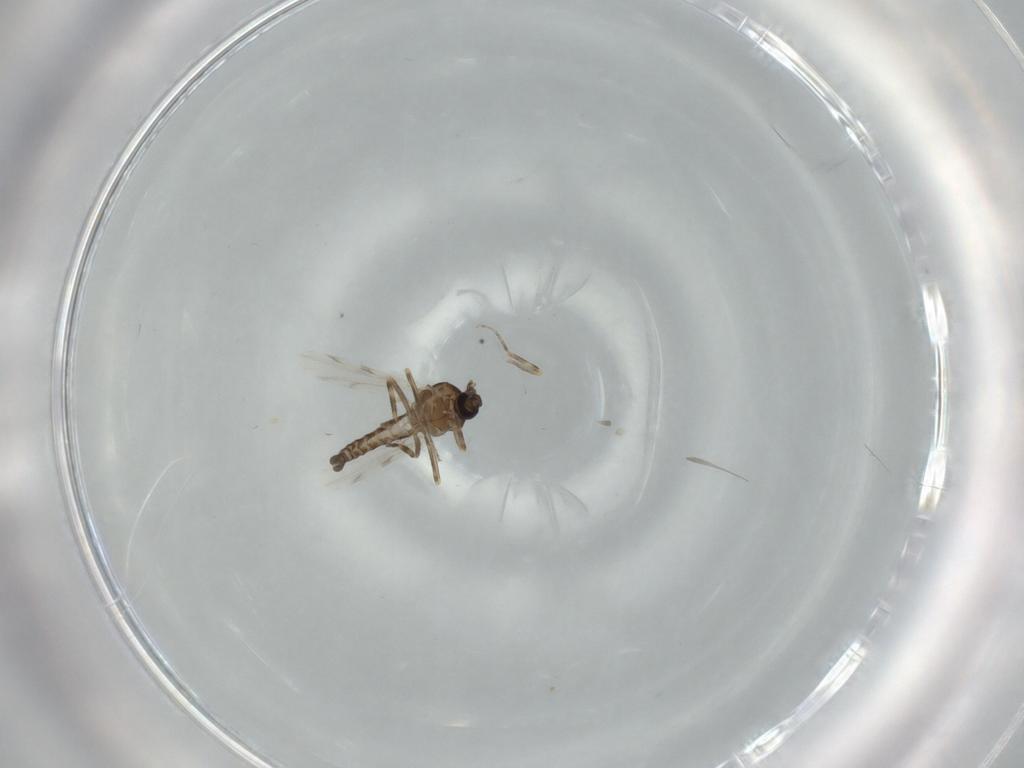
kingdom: Animalia
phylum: Arthropoda
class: Insecta
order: Diptera
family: Ceratopogonidae
